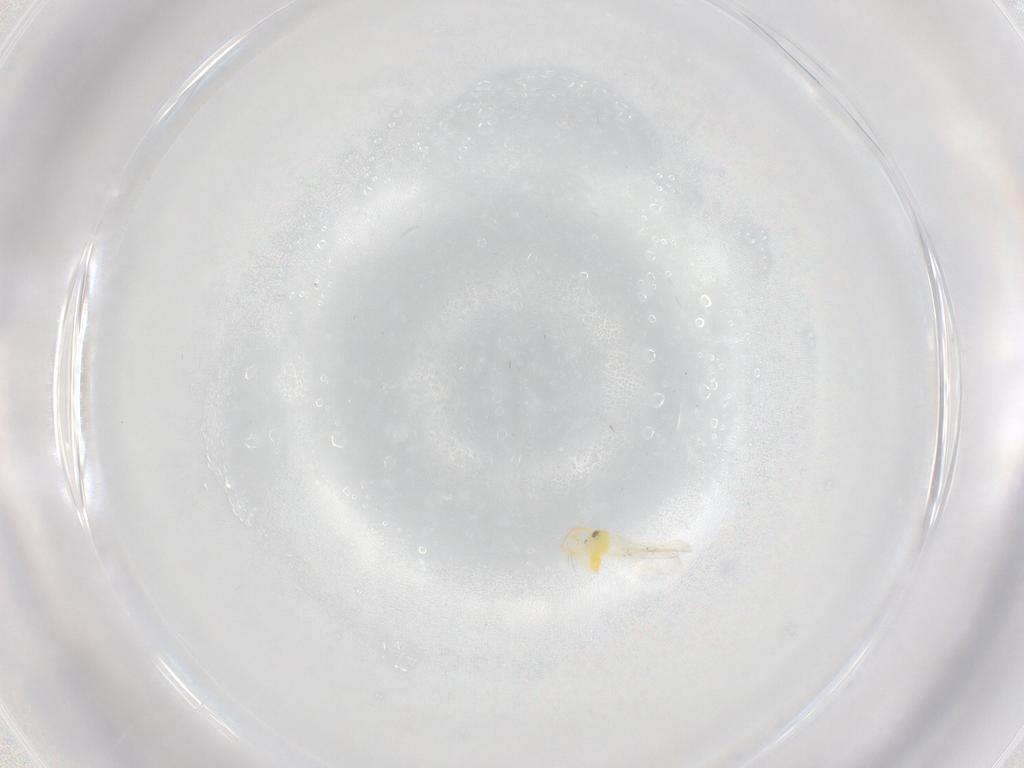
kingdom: Animalia
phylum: Arthropoda
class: Insecta
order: Hemiptera
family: Aleyrodidae
